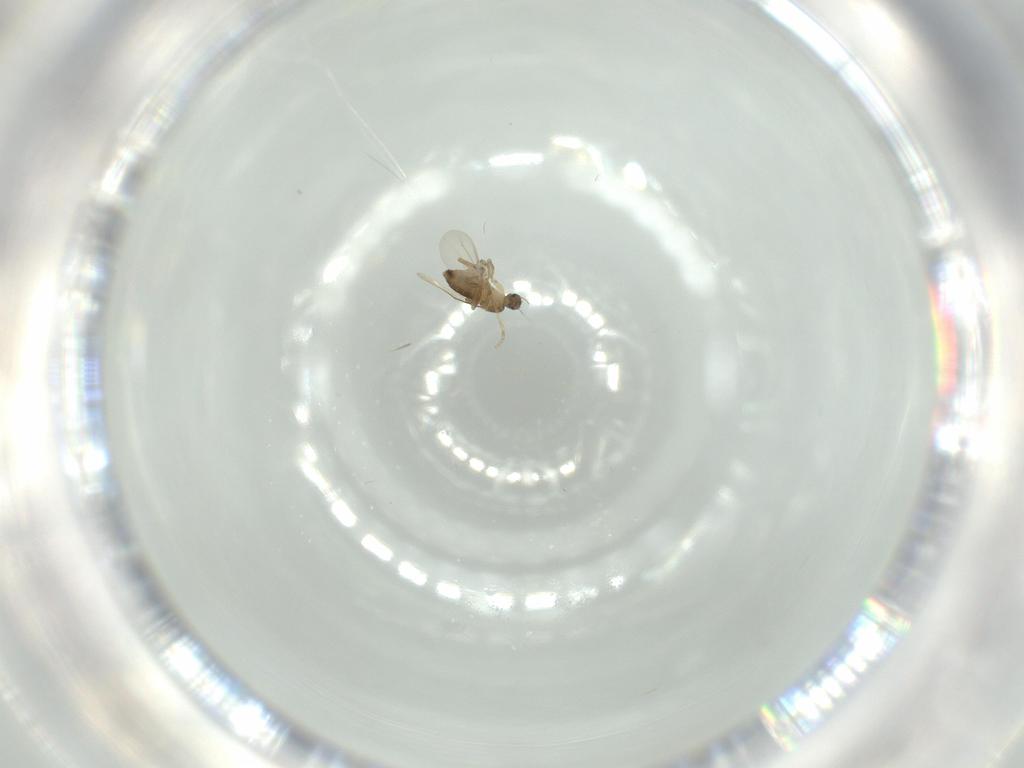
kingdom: Animalia
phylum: Arthropoda
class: Insecta
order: Diptera
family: Phoridae
